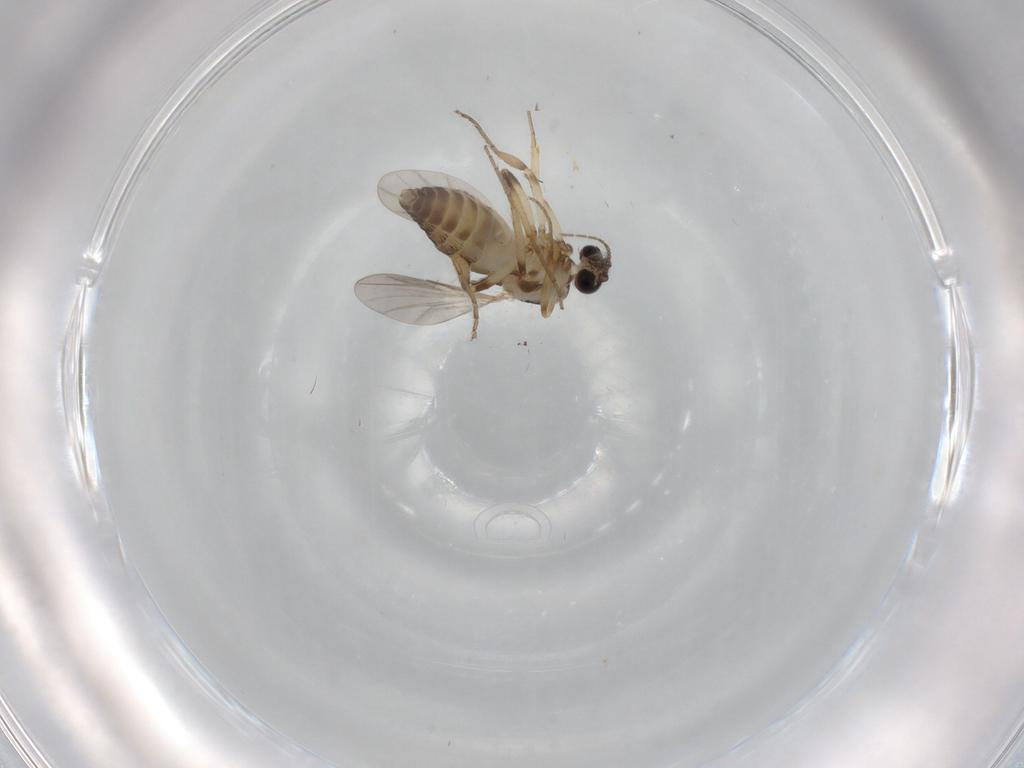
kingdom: Animalia
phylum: Arthropoda
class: Insecta
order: Diptera
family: Ceratopogonidae
